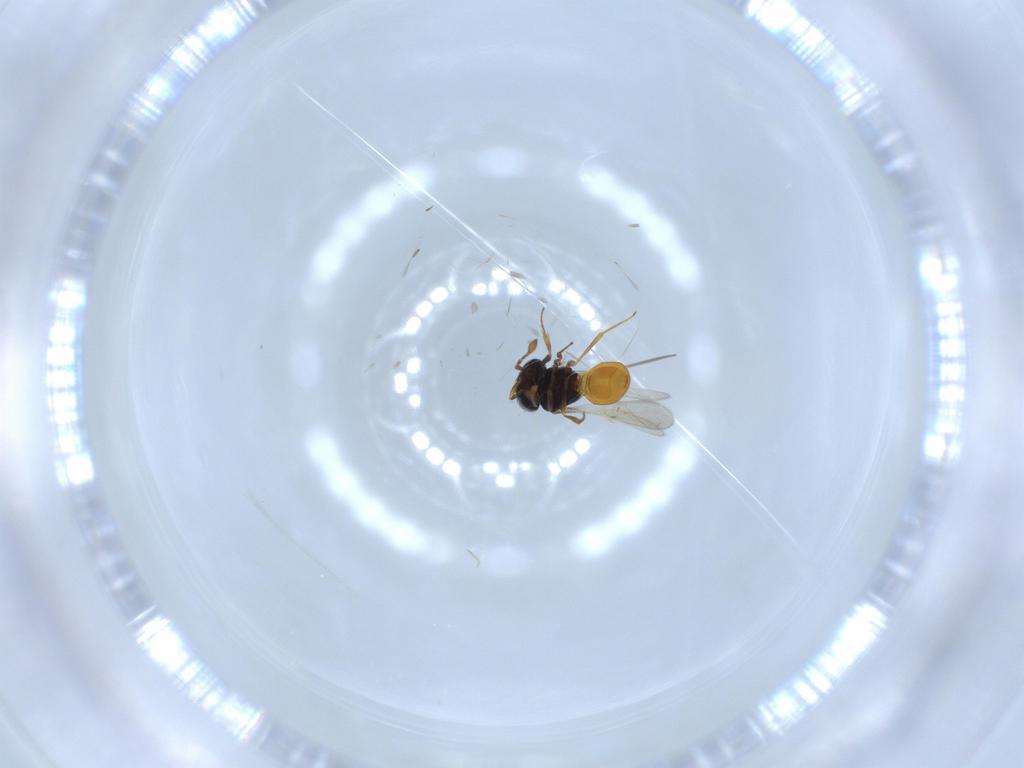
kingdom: Animalia
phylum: Arthropoda
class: Insecta
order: Hymenoptera
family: Scelionidae
